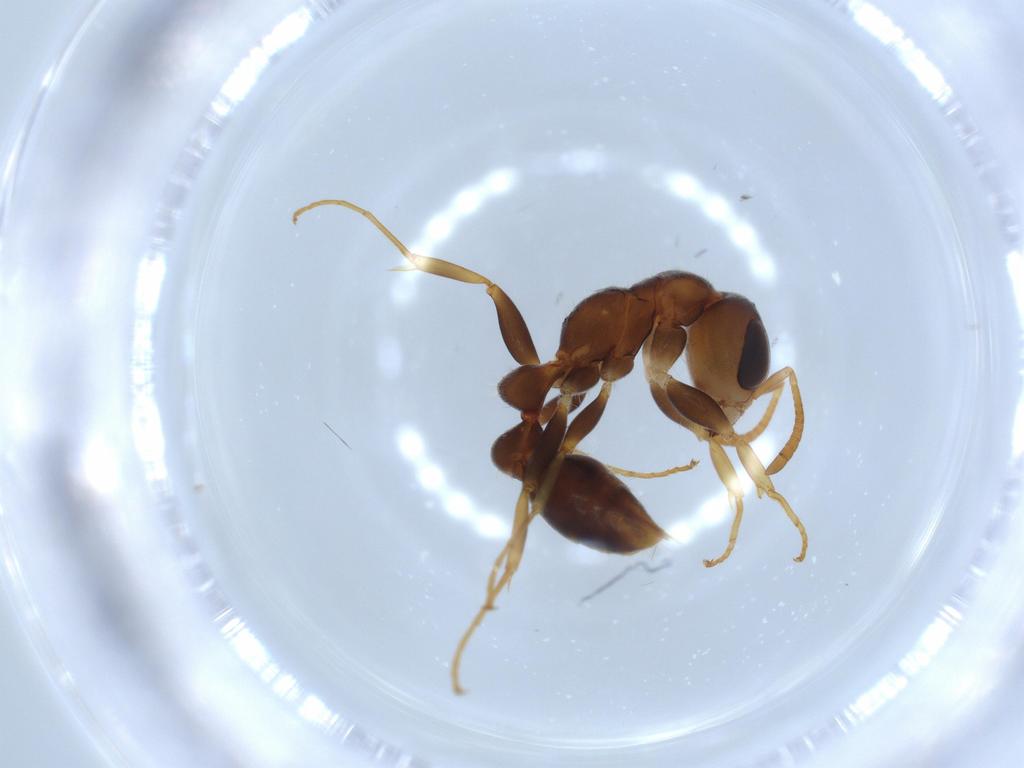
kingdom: Animalia
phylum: Arthropoda
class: Insecta
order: Hymenoptera
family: Formicidae
